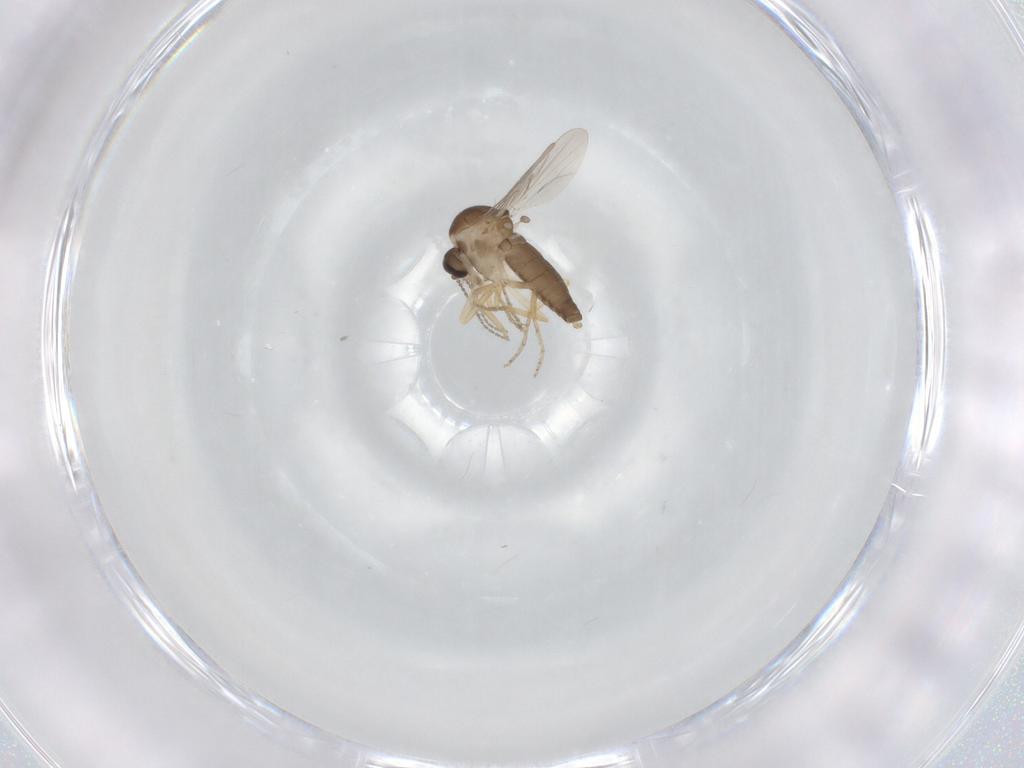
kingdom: Animalia
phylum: Arthropoda
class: Insecta
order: Diptera
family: Ceratopogonidae
